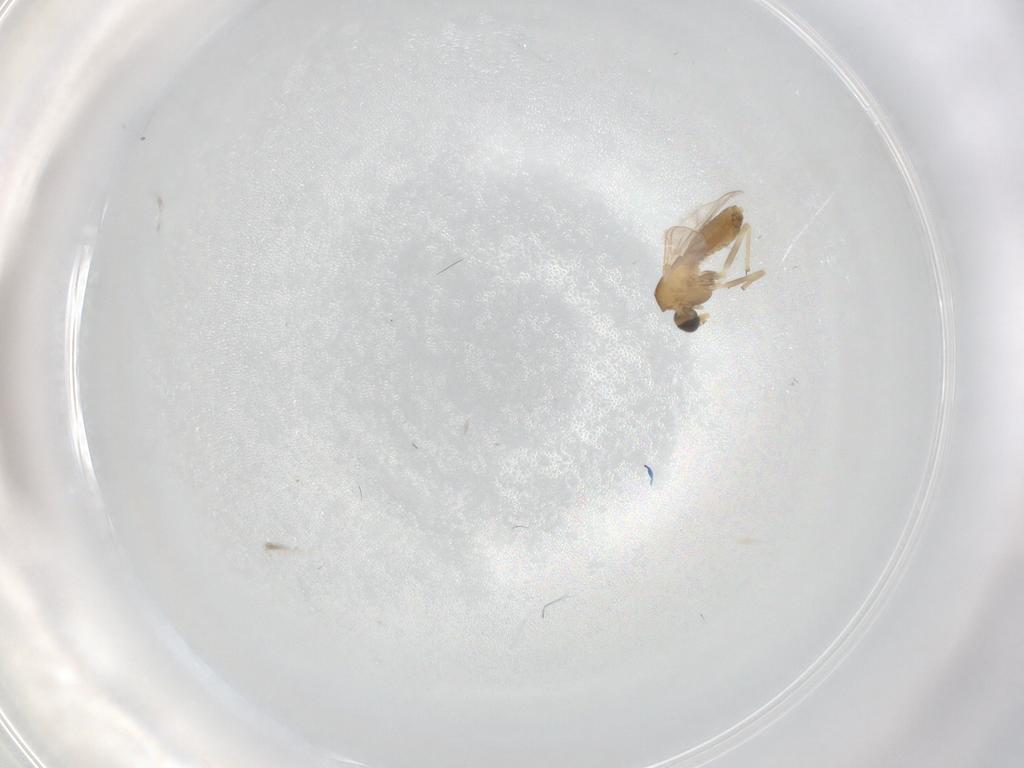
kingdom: Animalia
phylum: Arthropoda
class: Insecta
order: Diptera
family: Chironomidae
